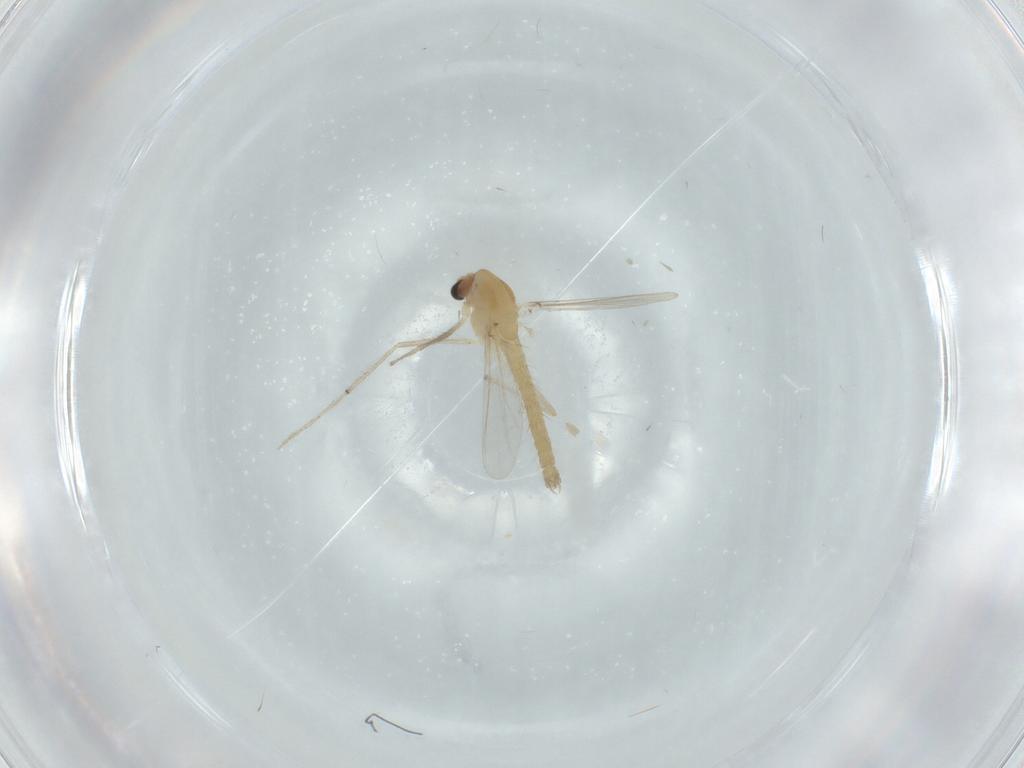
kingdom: Animalia
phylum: Arthropoda
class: Insecta
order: Diptera
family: Chironomidae
